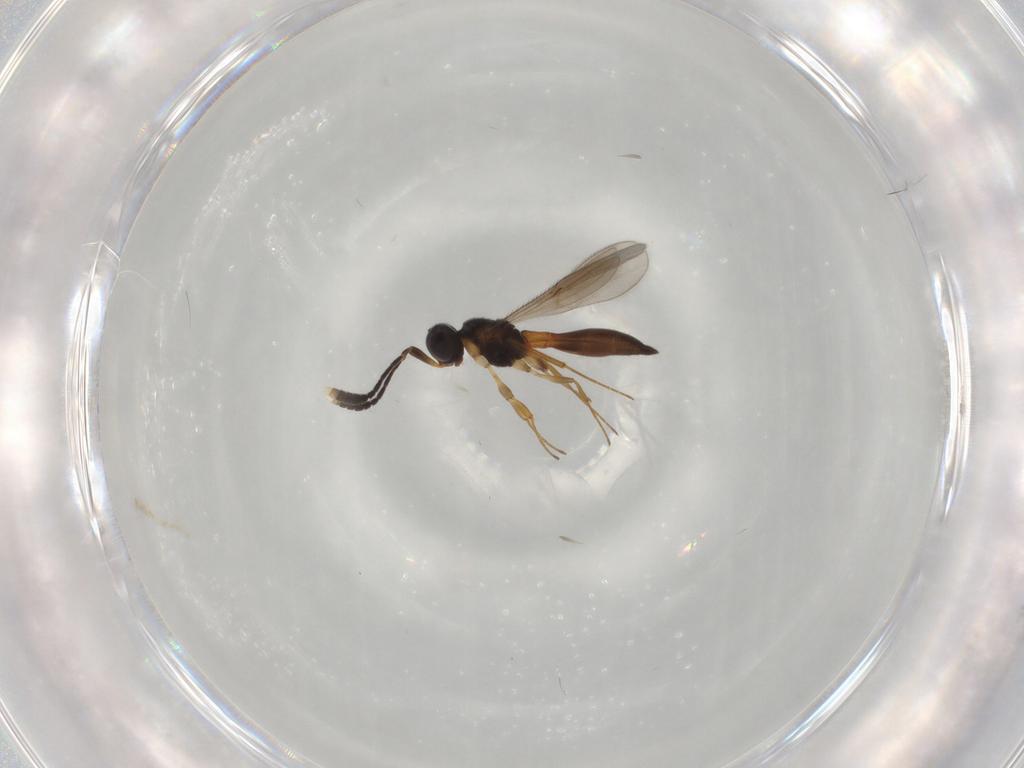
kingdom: Animalia
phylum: Arthropoda
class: Insecta
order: Hymenoptera
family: Scelionidae
